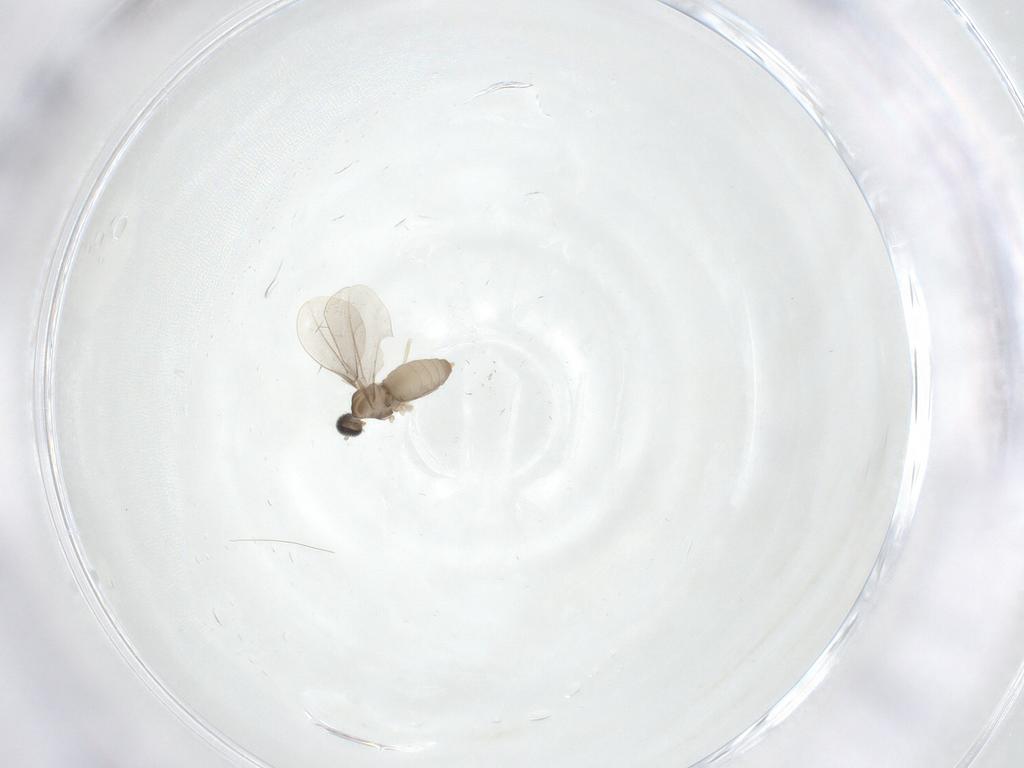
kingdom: Animalia
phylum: Arthropoda
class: Insecta
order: Diptera
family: Cecidomyiidae
